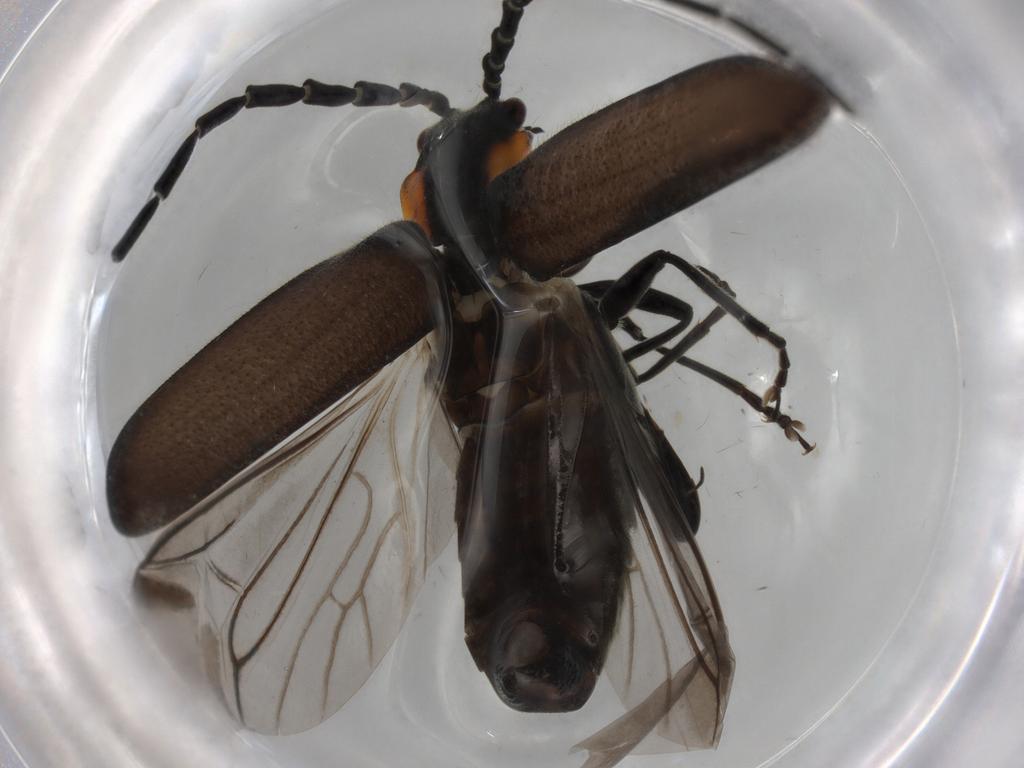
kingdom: Animalia
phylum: Arthropoda
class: Insecta
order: Coleoptera
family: Cantharidae
